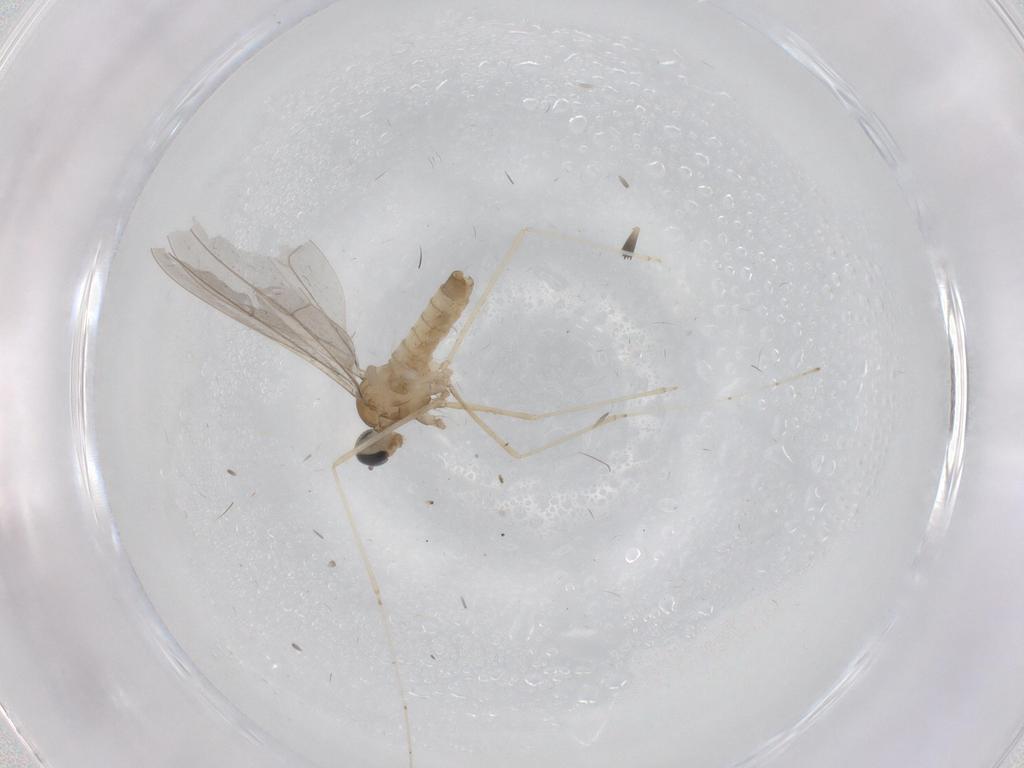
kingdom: Animalia
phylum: Arthropoda
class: Insecta
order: Diptera
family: Cecidomyiidae
